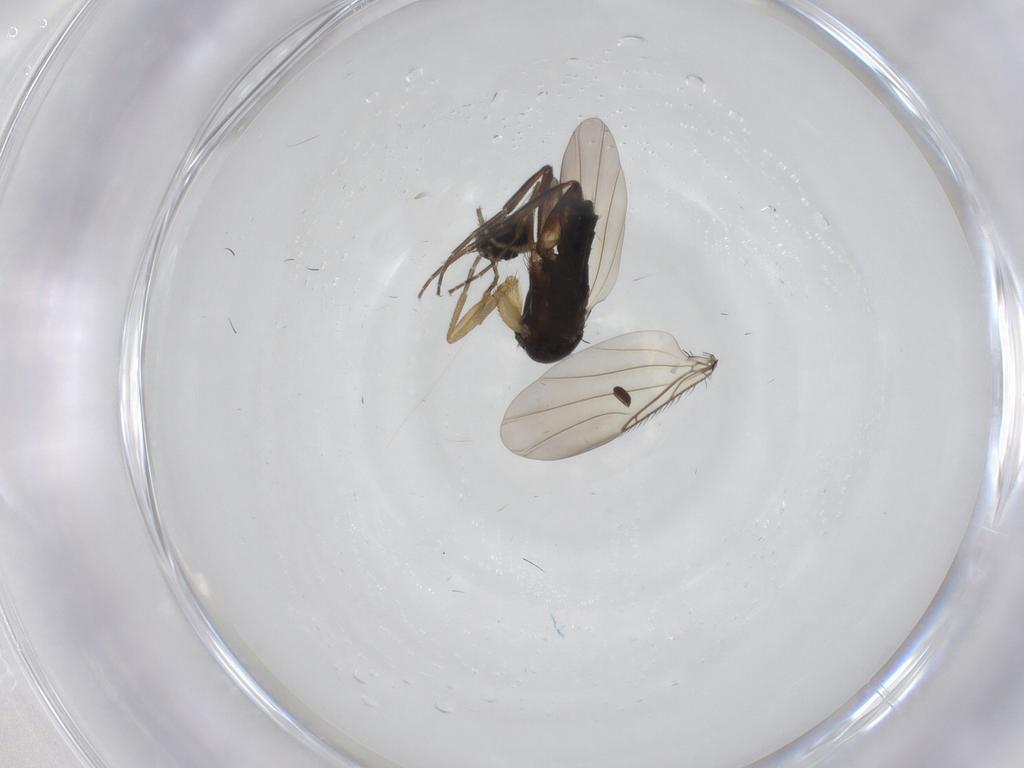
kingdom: Animalia
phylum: Arthropoda
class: Insecta
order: Diptera
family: Phoridae
